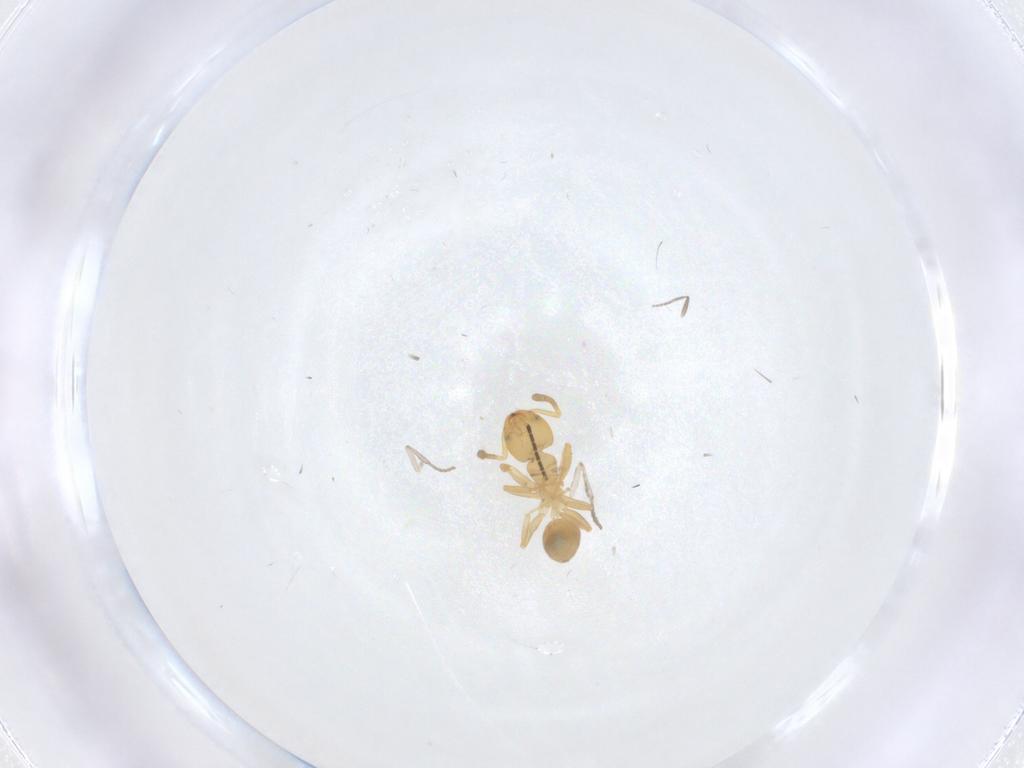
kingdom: Animalia
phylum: Arthropoda
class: Insecta
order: Hymenoptera
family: Formicidae
